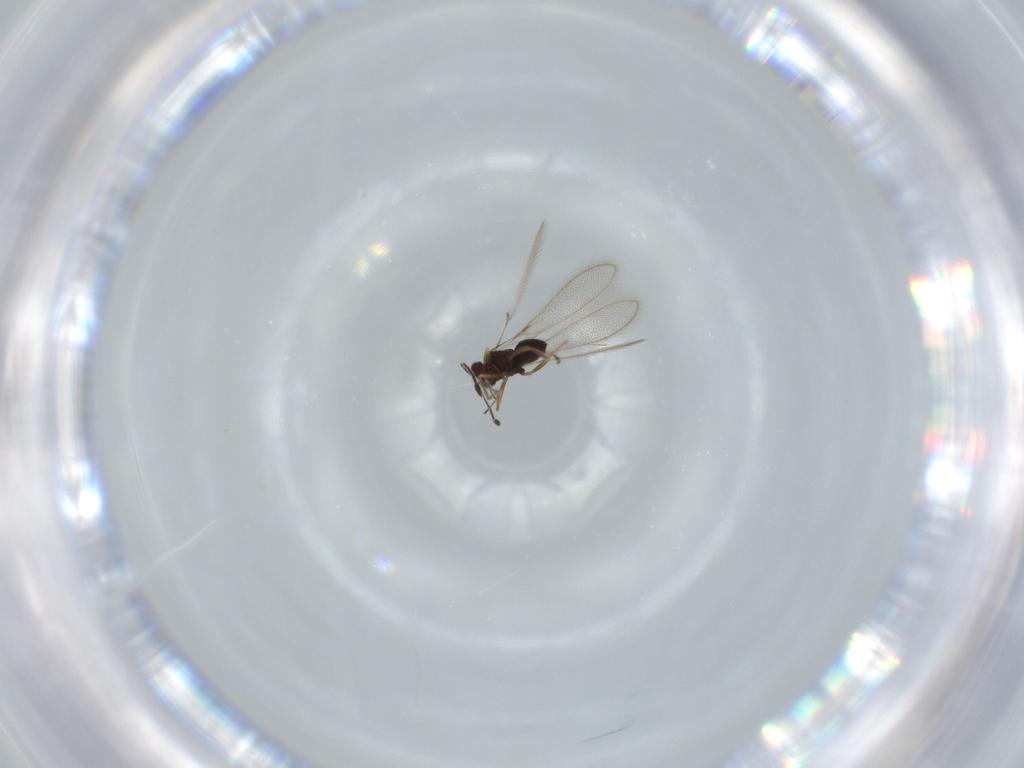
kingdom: Animalia
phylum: Arthropoda
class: Insecta
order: Hymenoptera
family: Mymaridae
